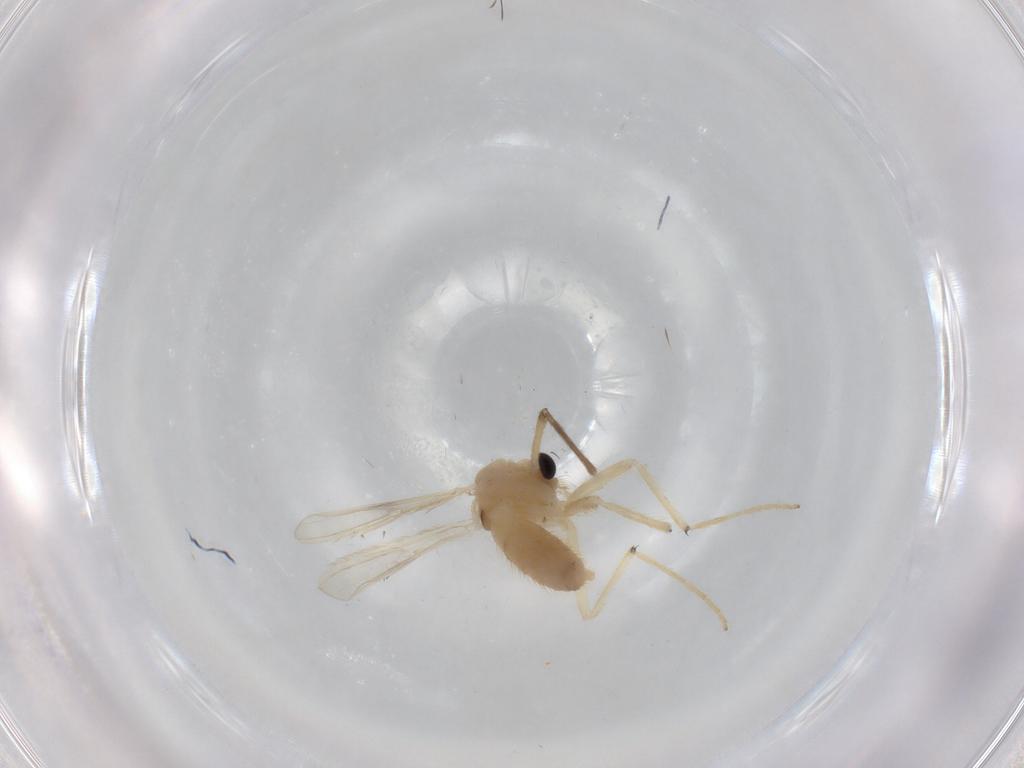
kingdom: Animalia
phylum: Arthropoda
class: Insecta
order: Diptera
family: Chironomidae
